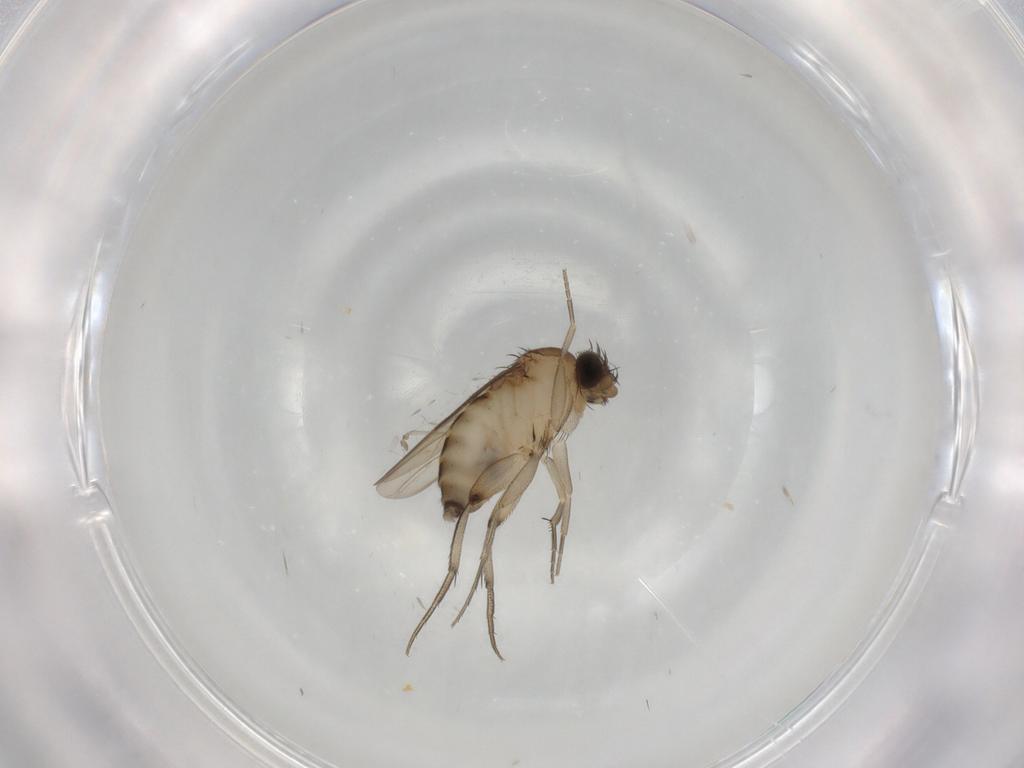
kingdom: Animalia
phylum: Arthropoda
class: Insecta
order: Diptera
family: Phoridae
